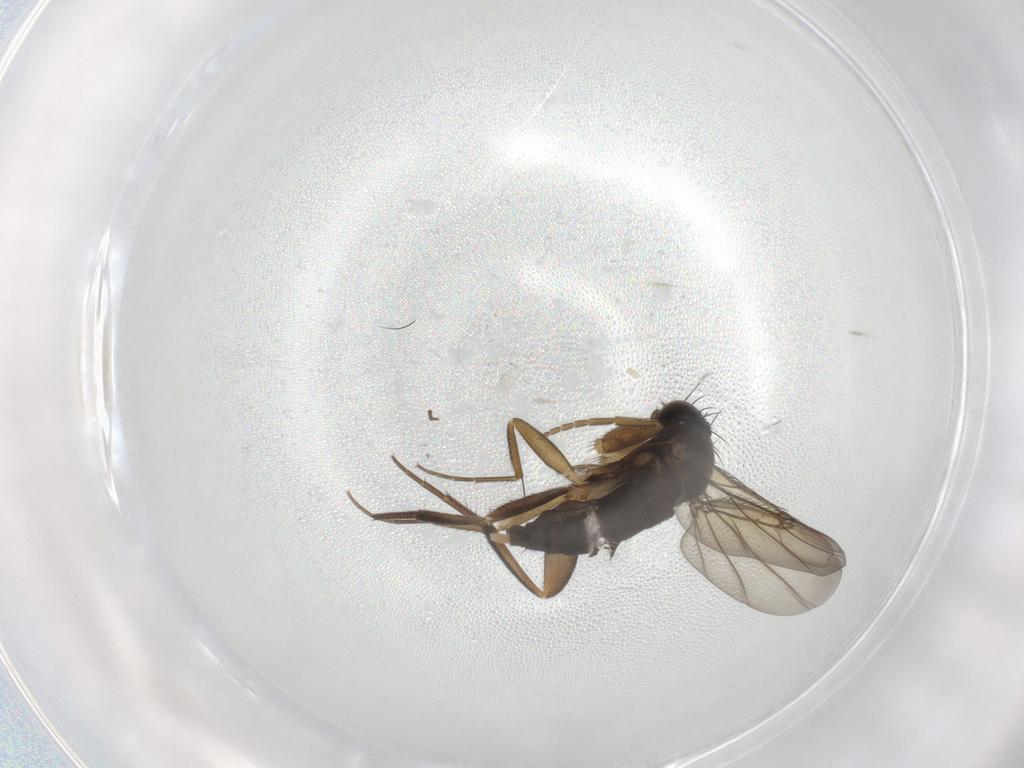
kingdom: Animalia
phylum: Arthropoda
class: Insecta
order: Diptera
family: Phoridae
